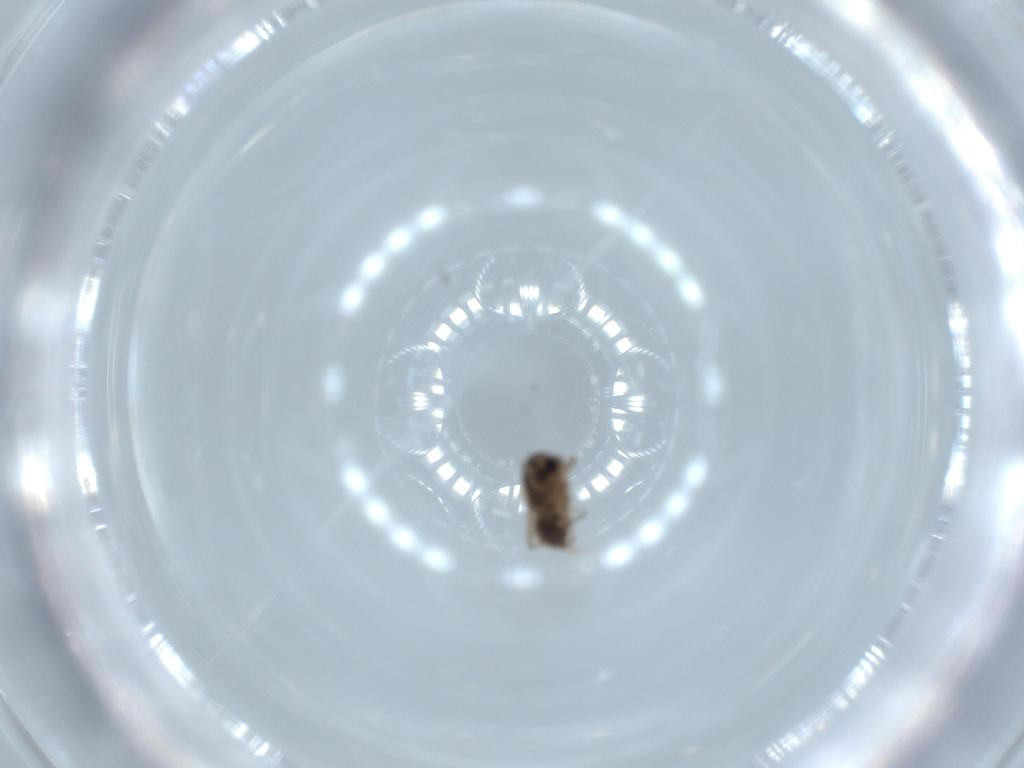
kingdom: Animalia
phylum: Arthropoda
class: Insecta
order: Diptera
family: Chironomidae
